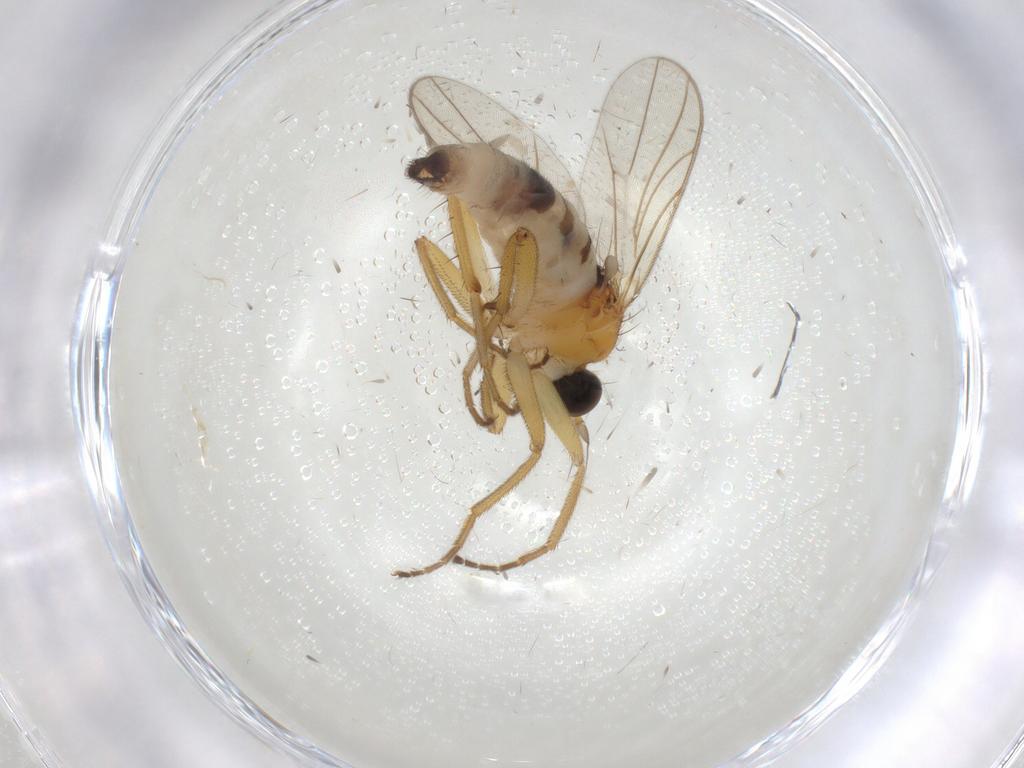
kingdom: Animalia
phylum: Arthropoda
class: Insecta
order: Diptera
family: Hybotidae
